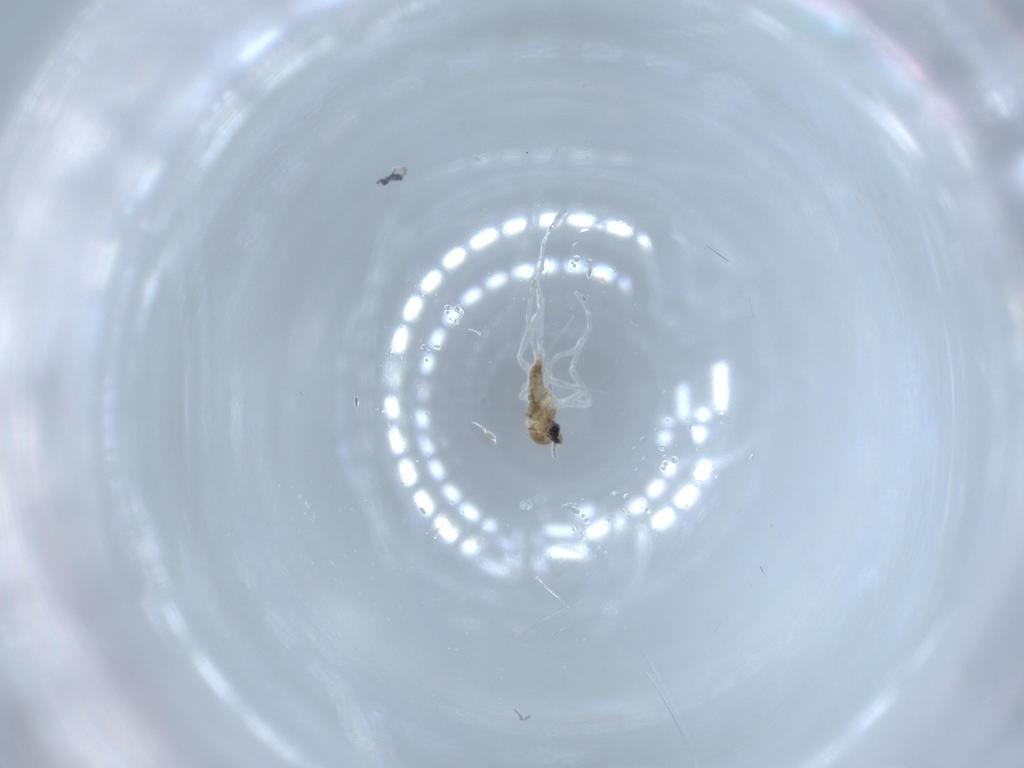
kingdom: Animalia
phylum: Arthropoda
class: Insecta
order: Diptera
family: Cecidomyiidae
